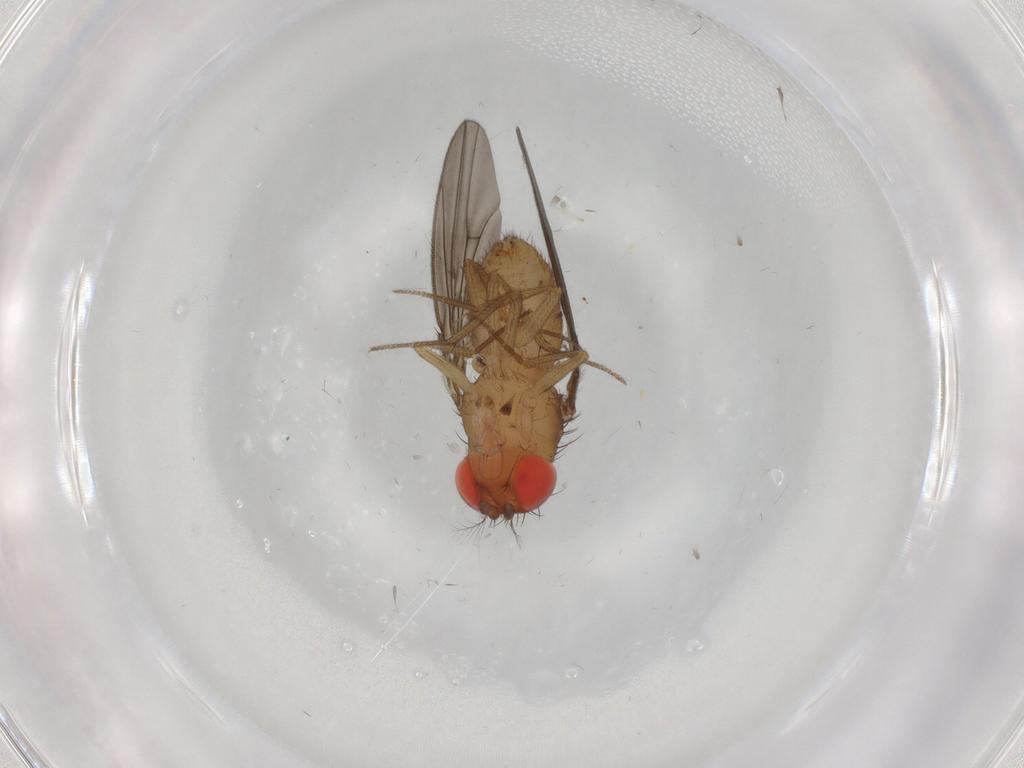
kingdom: Animalia
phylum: Arthropoda
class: Insecta
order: Diptera
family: Drosophilidae
